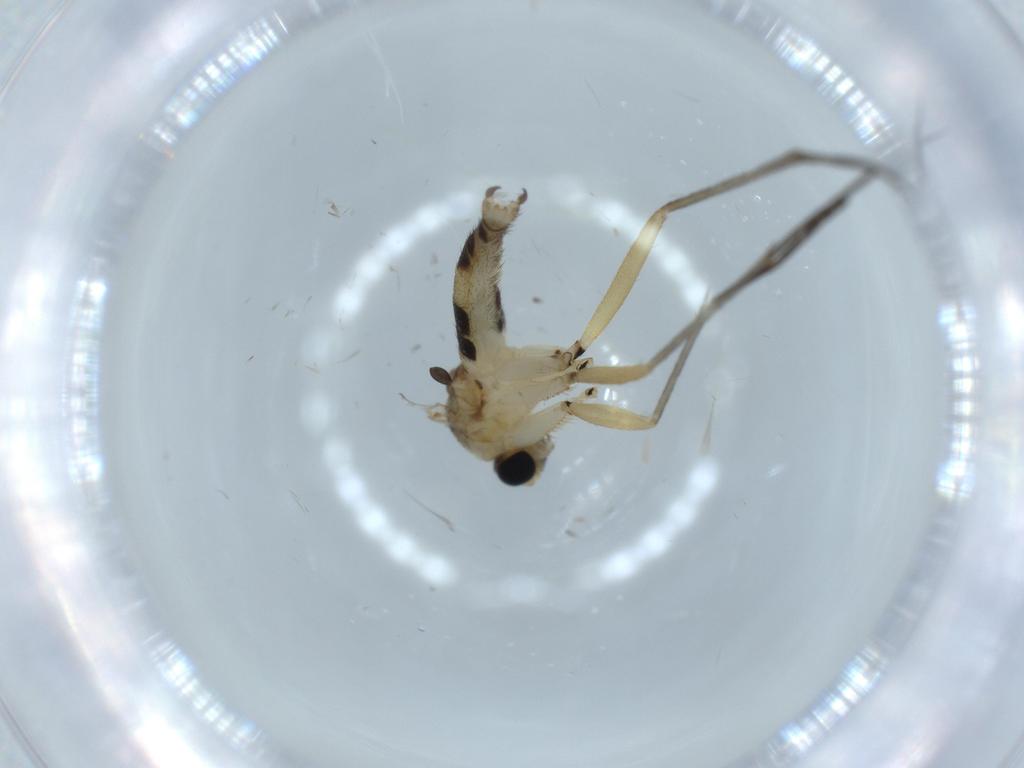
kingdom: Animalia
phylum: Arthropoda
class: Insecta
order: Diptera
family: Sciaridae
